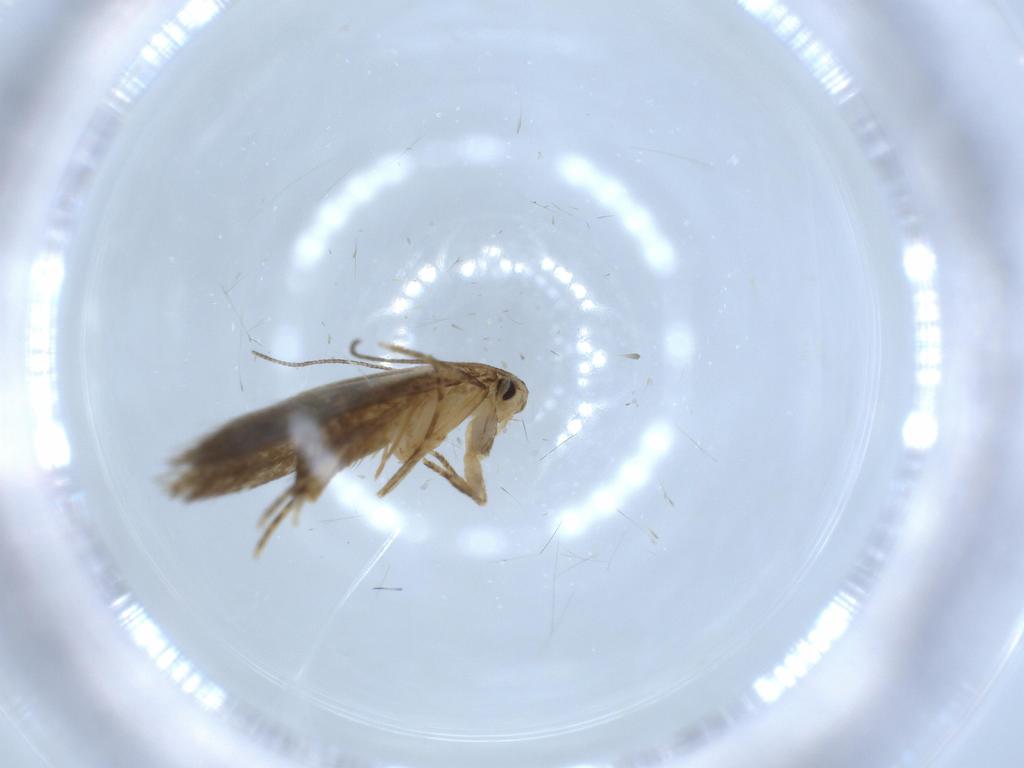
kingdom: Animalia
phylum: Arthropoda
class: Insecta
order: Lepidoptera
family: Tineidae
